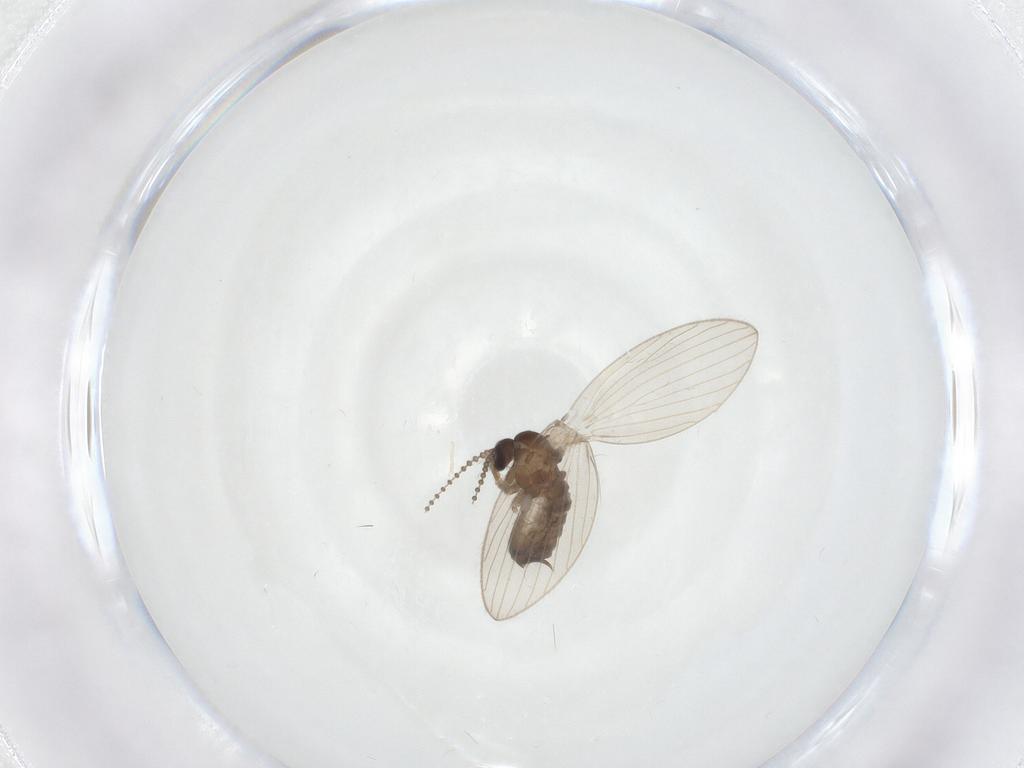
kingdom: Animalia
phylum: Arthropoda
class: Insecta
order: Diptera
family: Psychodidae
